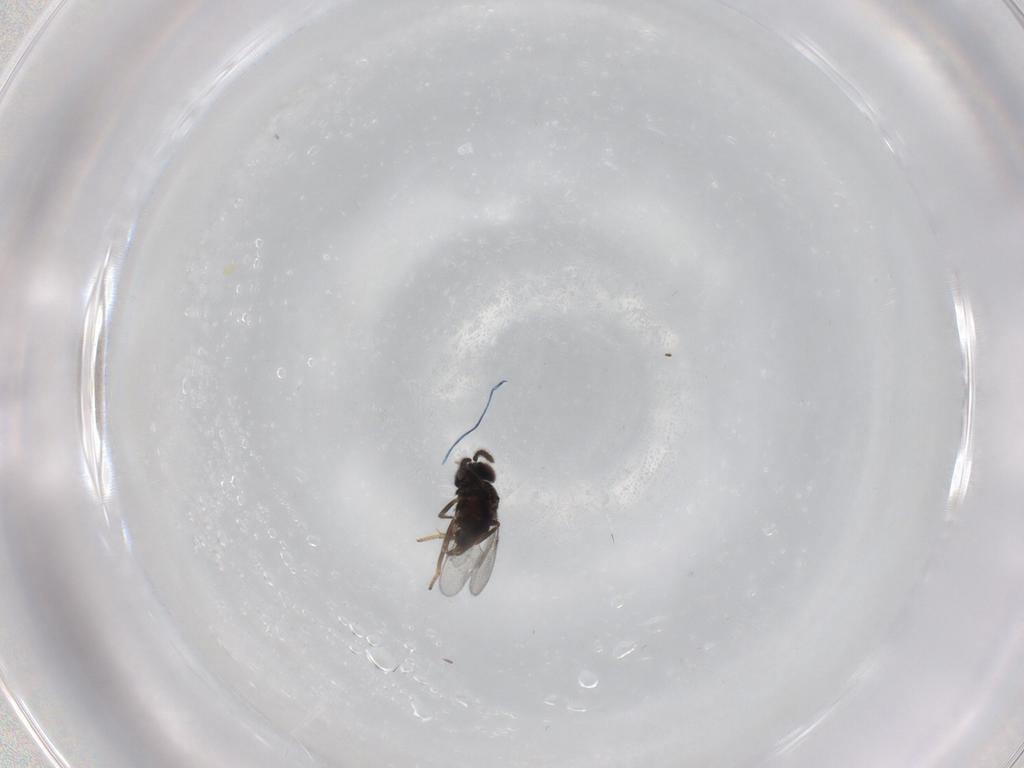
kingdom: Animalia
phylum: Arthropoda
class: Insecta
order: Hymenoptera
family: Encyrtidae
